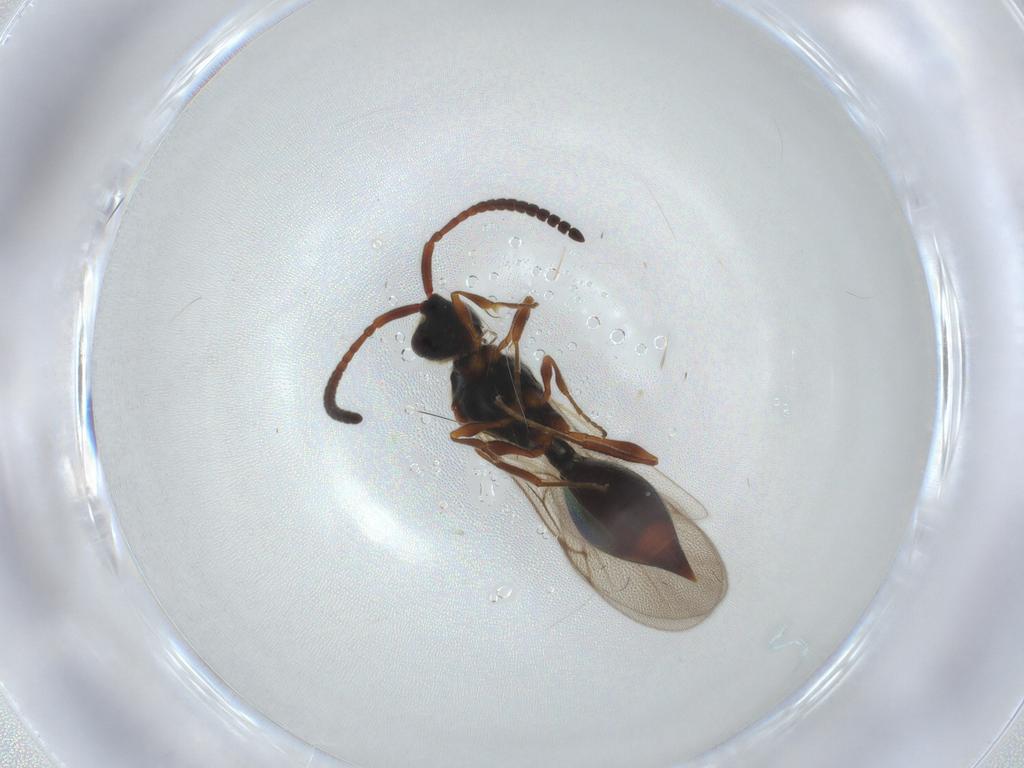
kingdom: Animalia
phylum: Arthropoda
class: Insecta
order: Hymenoptera
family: Diapriidae
